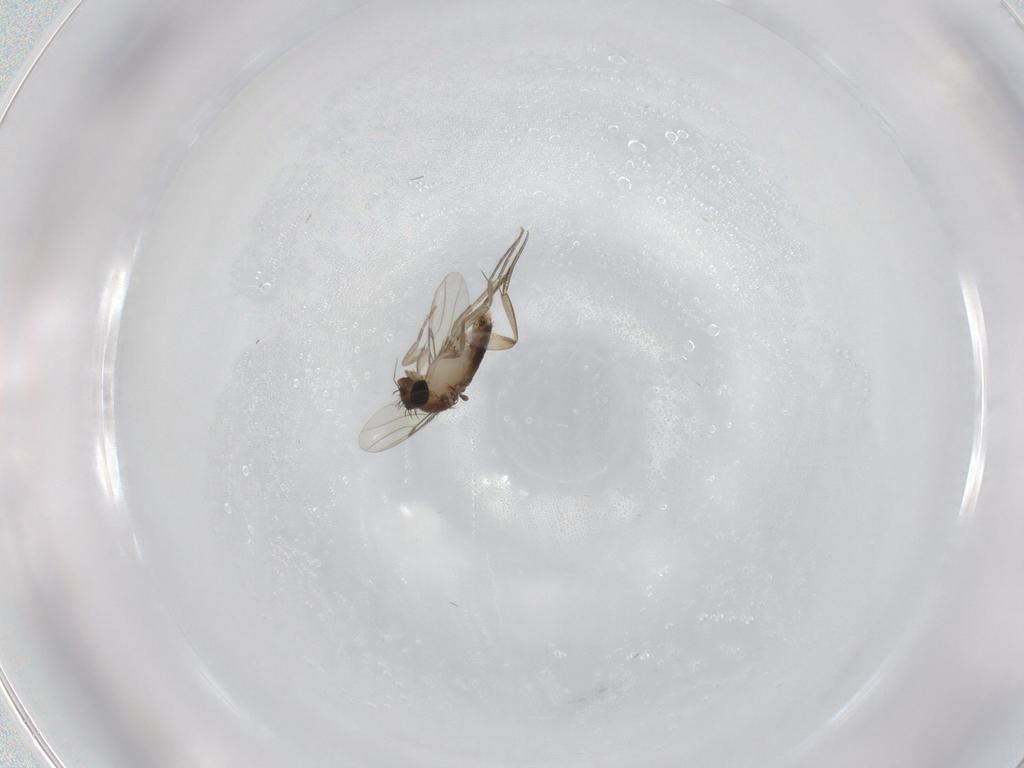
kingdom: Animalia
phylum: Arthropoda
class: Insecta
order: Diptera
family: Phoridae
